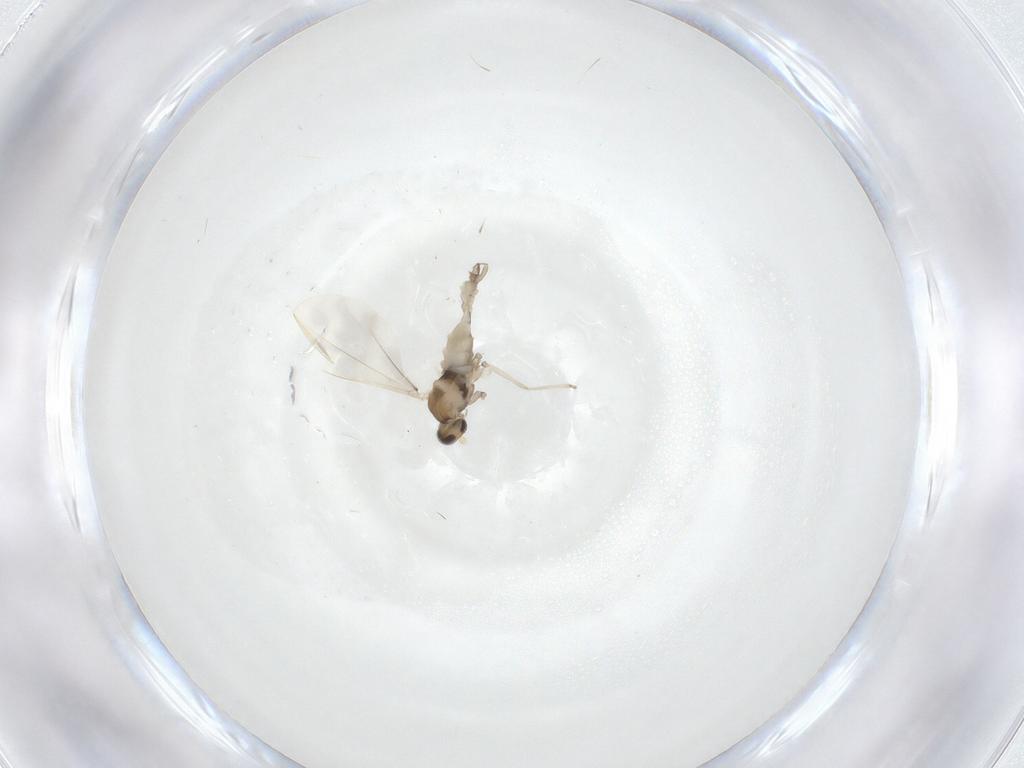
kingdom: Animalia
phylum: Arthropoda
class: Insecta
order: Diptera
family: Cecidomyiidae
